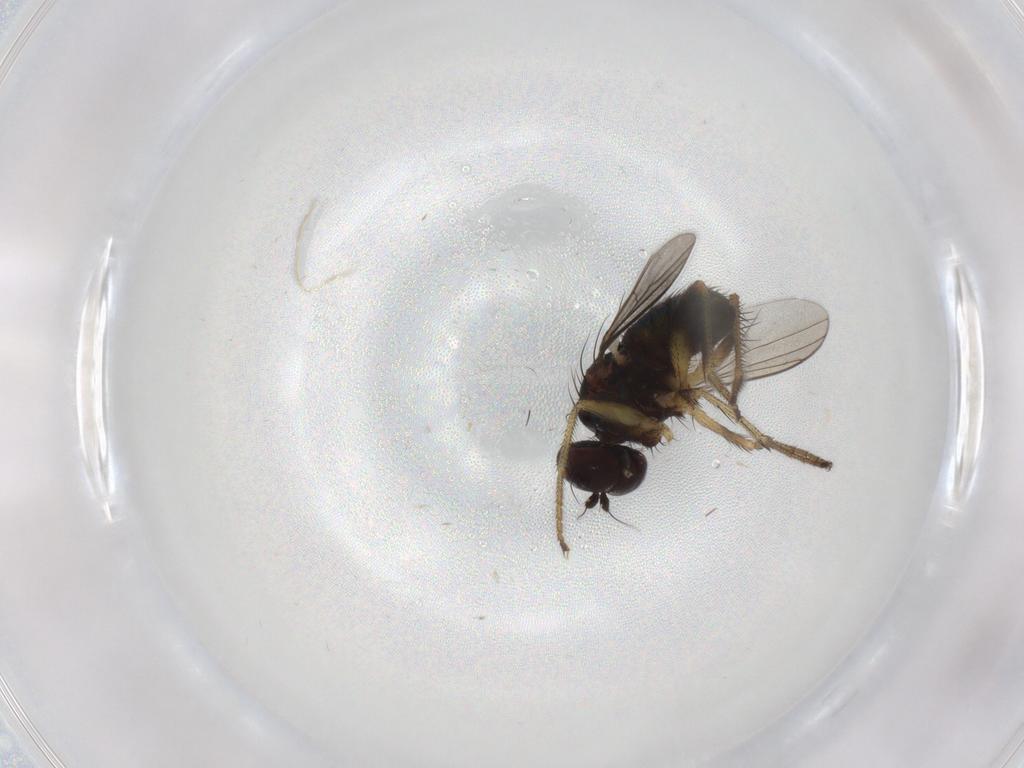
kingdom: Animalia
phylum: Arthropoda
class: Insecta
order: Diptera
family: Dolichopodidae
